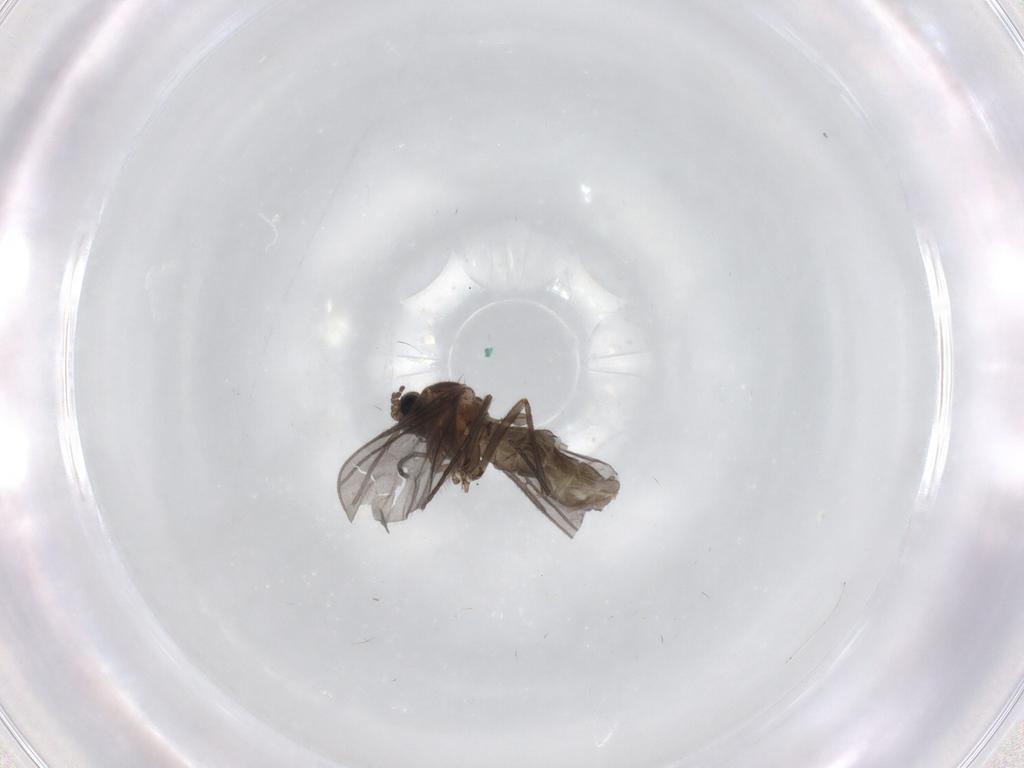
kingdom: Animalia
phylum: Arthropoda
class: Insecta
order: Diptera
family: Cecidomyiidae
